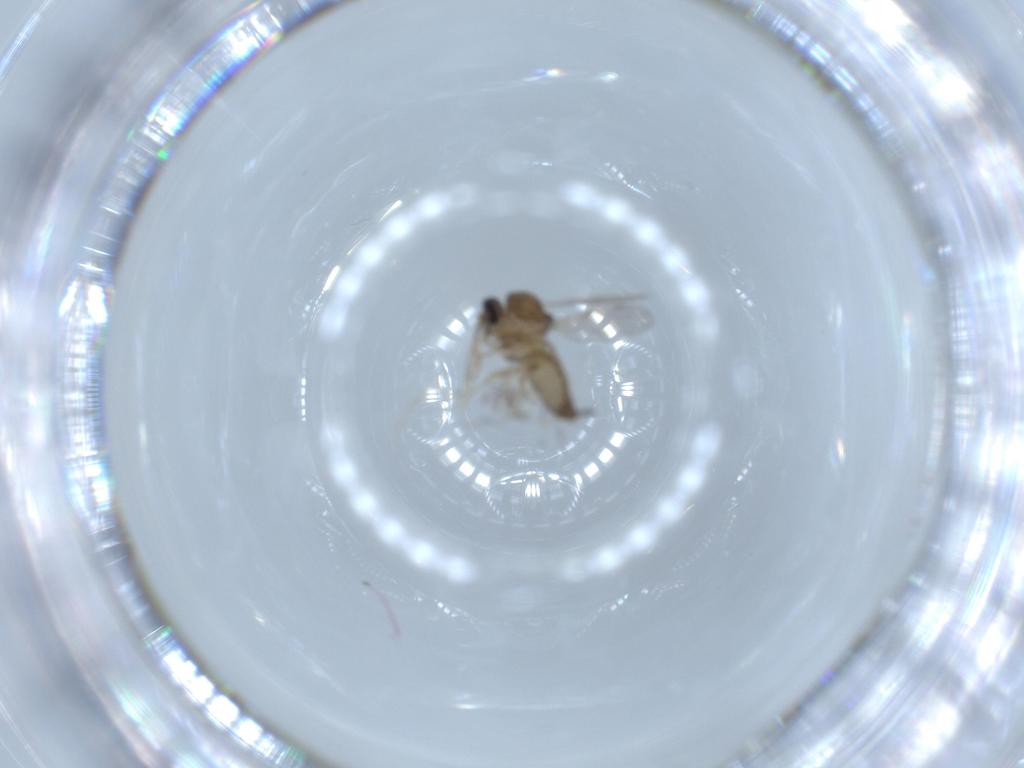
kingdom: Animalia
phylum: Arthropoda
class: Insecta
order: Diptera
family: Ceratopogonidae
